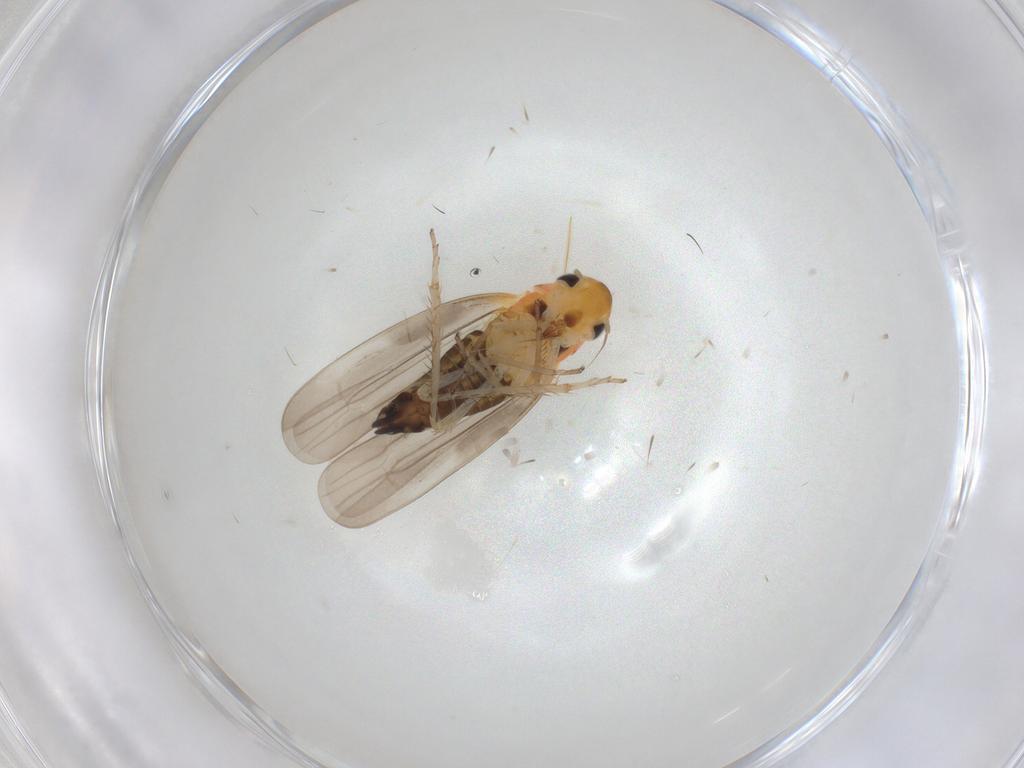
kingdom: Animalia
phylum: Arthropoda
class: Insecta
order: Hemiptera
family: Cicadellidae
